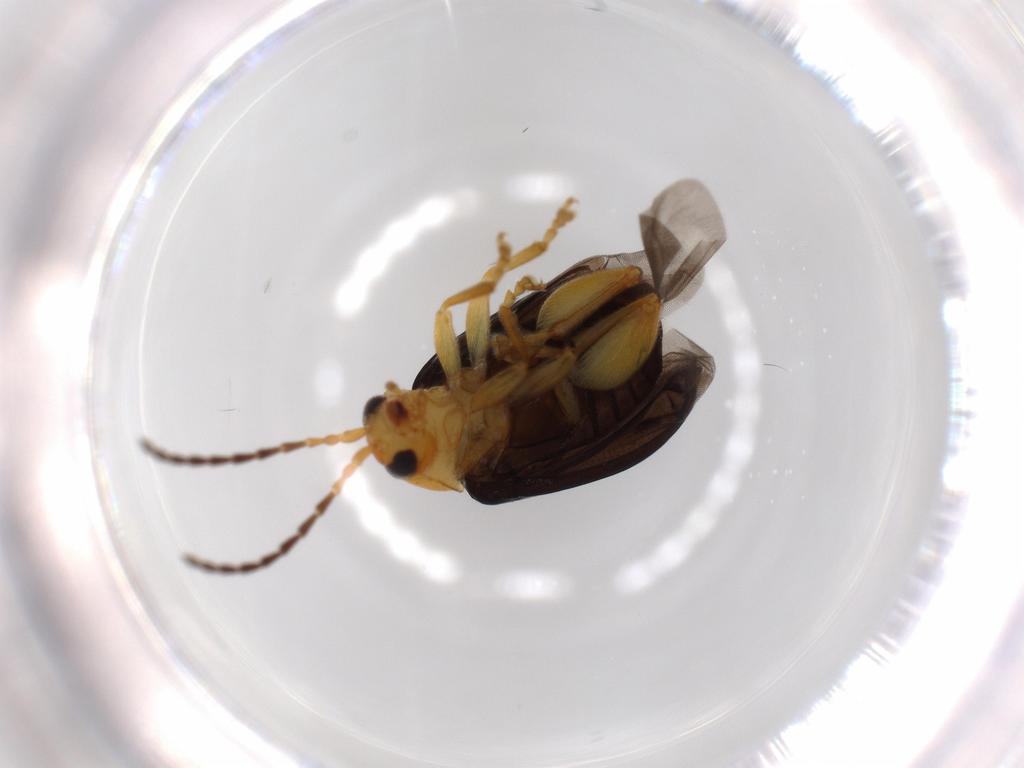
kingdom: Animalia
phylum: Arthropoda
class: Insecta
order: Coleoptera
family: Chrysomelidae
